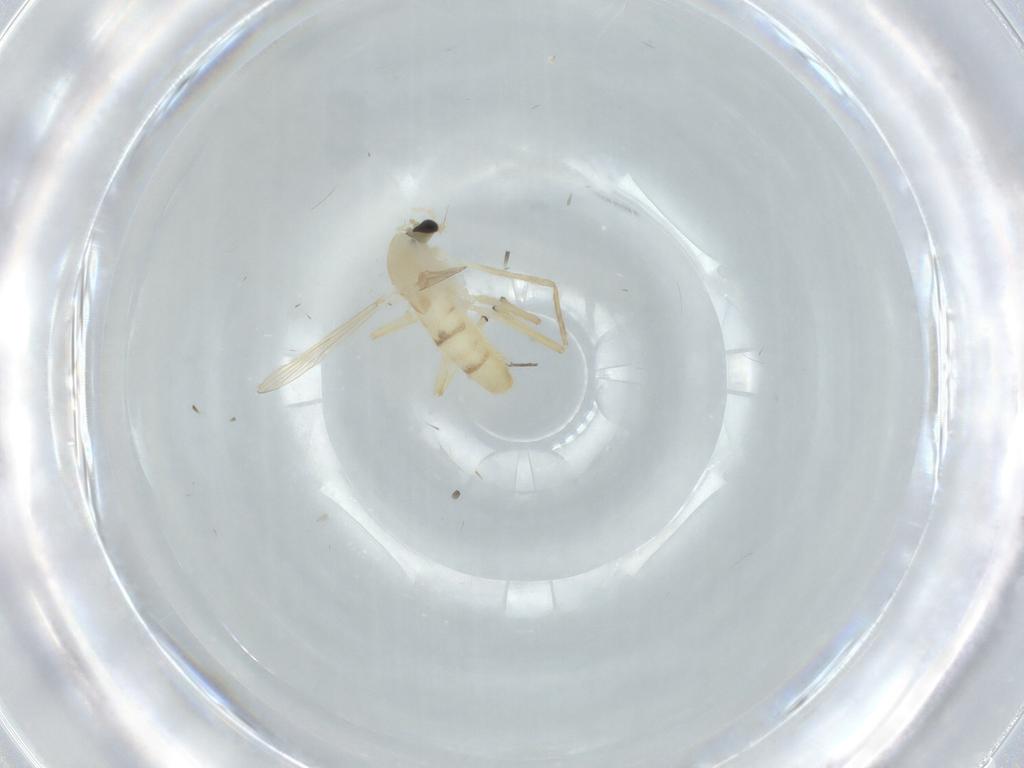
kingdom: Animalia
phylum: Arthropoda
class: Insecta
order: Diptera
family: Chironomidae
